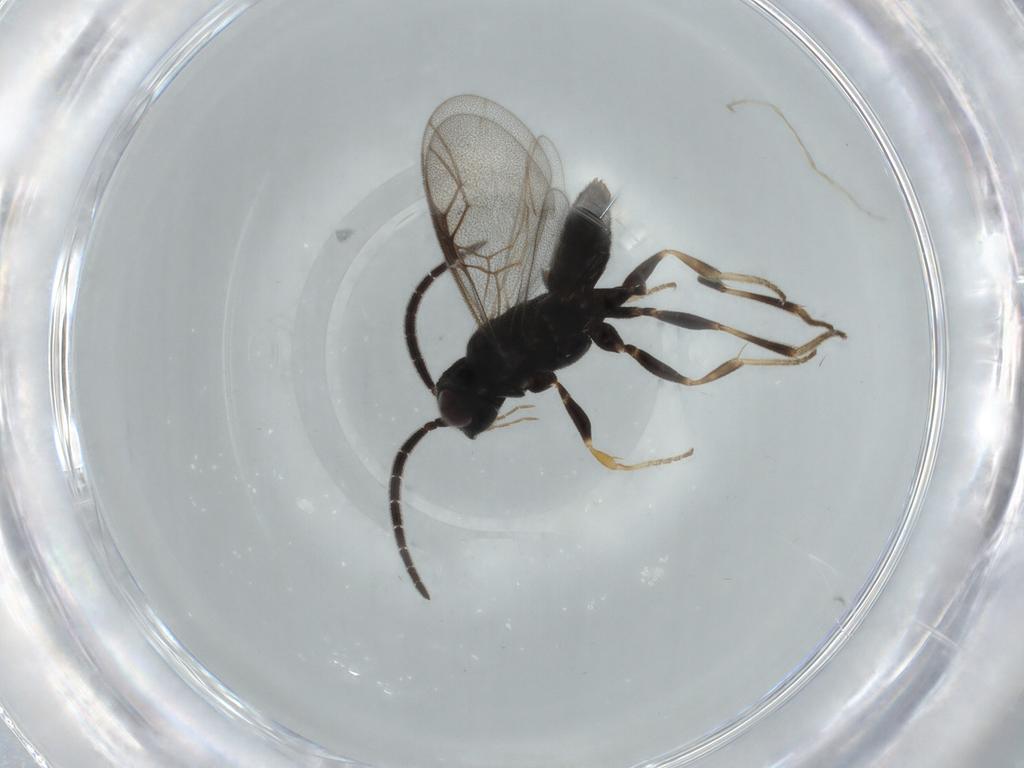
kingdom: Animalia
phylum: Arthropoda
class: Insecta
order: Hymenoptera
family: Dryinidae
